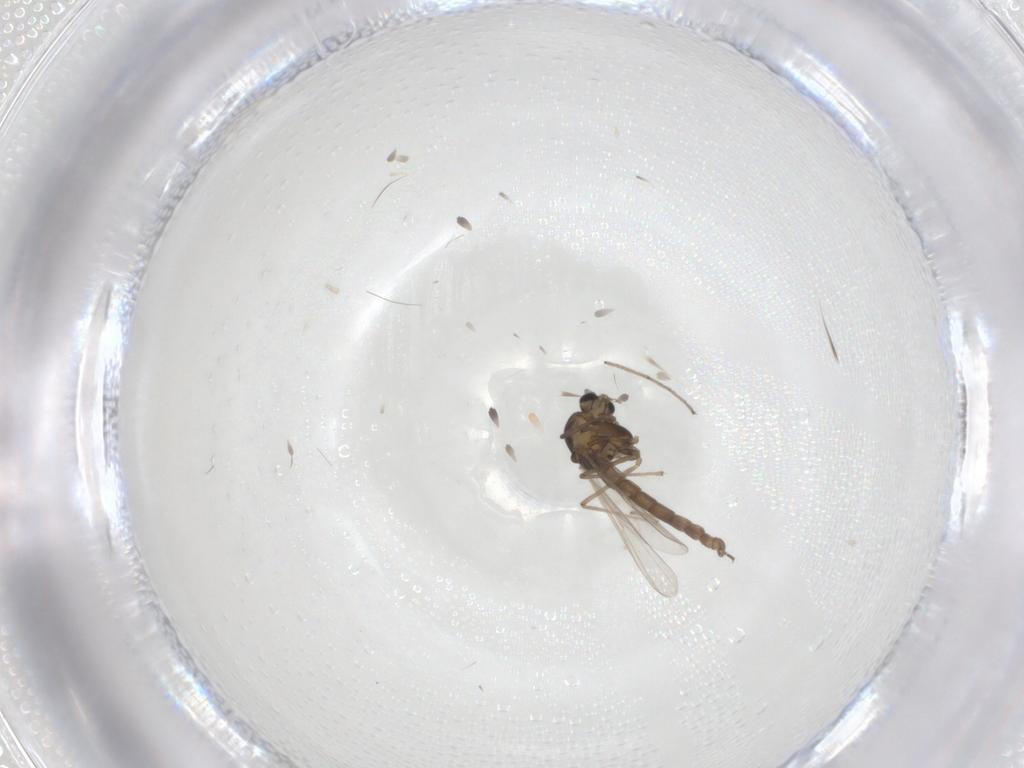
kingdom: Animalia
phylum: Arthropoda
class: Insecta
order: Diptera
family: Chironomidae
